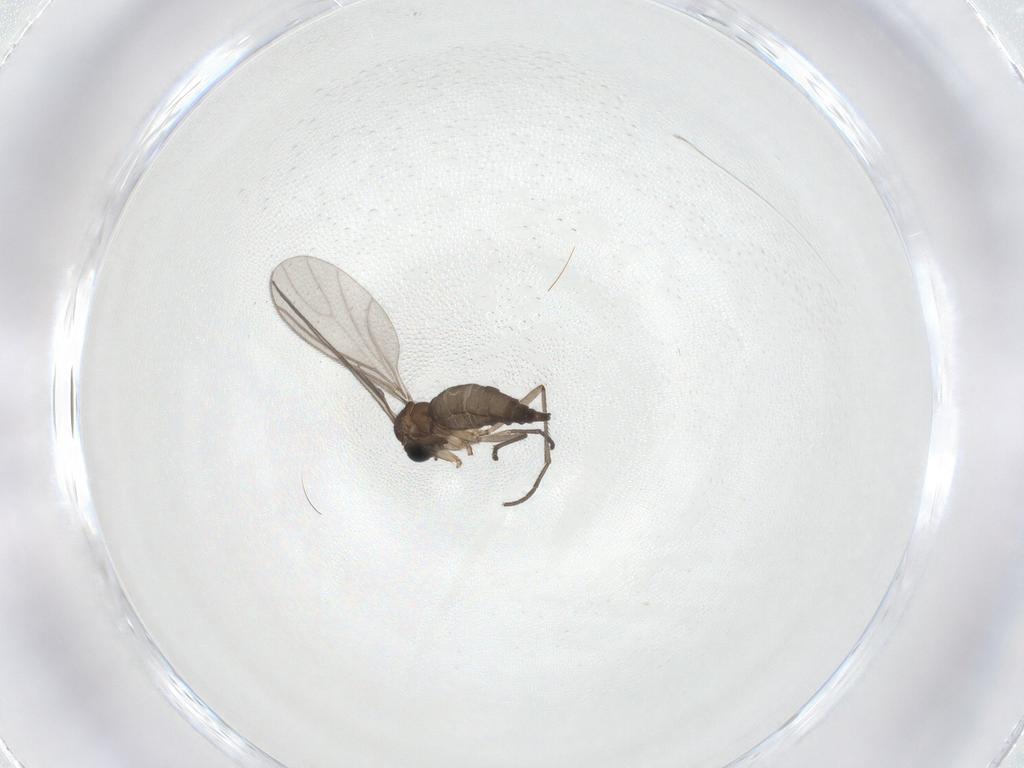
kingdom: Animalia
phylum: Arthropoda
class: Insecta
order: Diptera
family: Sciaridae
